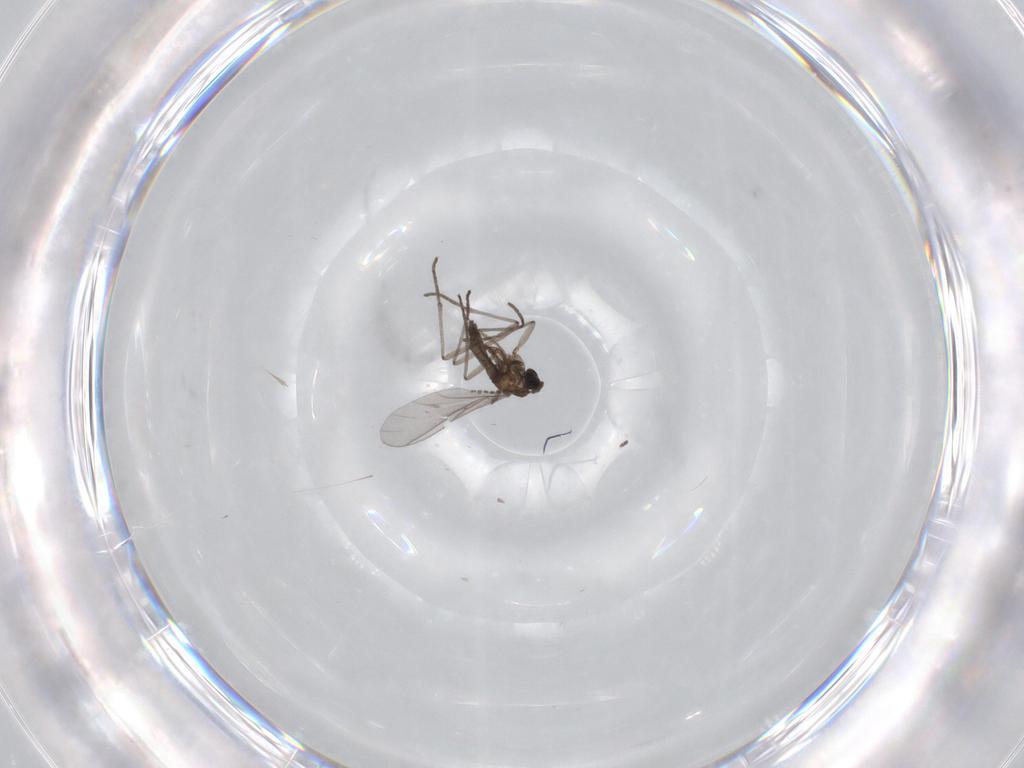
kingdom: Animalia
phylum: Arthropoda
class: Insecta
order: Diptera
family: Sciaridae
